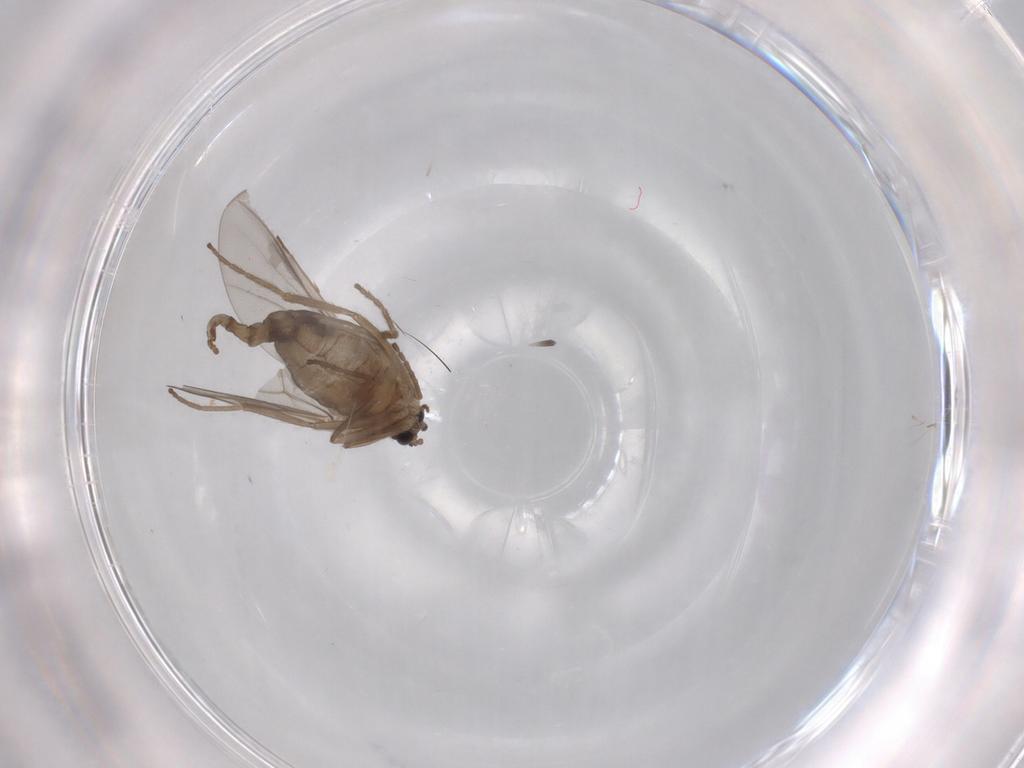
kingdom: Animalia
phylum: Arthropoda
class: Insecta
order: Diptera
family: Cecidomyiidae
